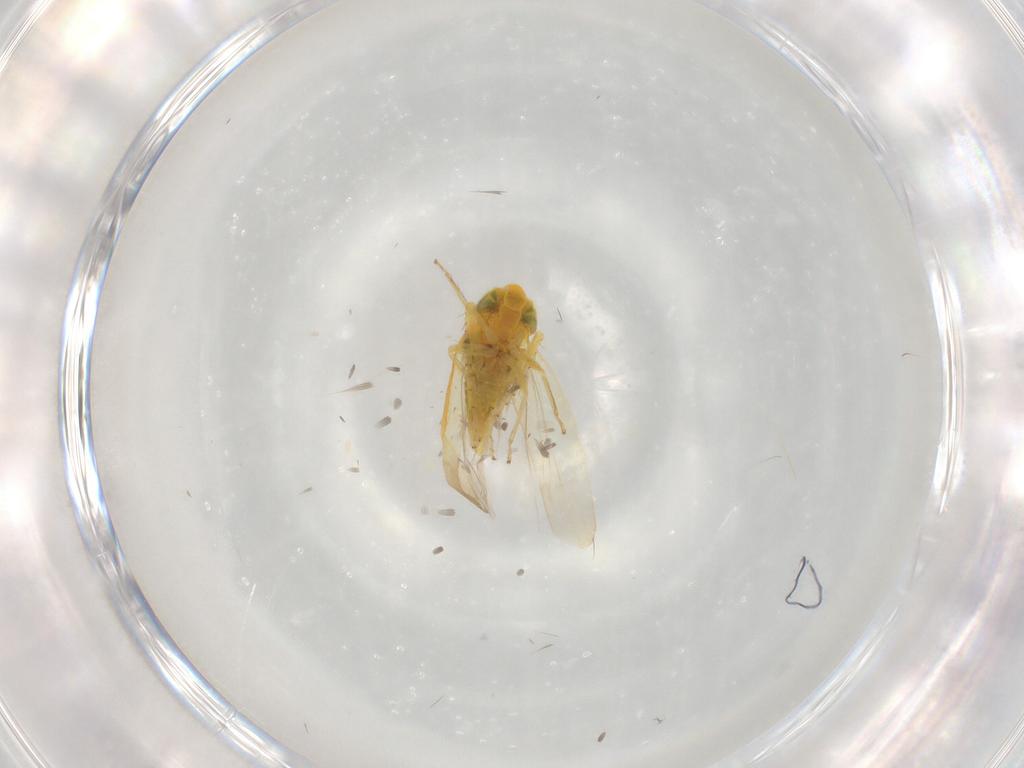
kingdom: Animalia
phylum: Arthropoda
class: Insecta
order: Hemiptera
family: Cicadellidae
